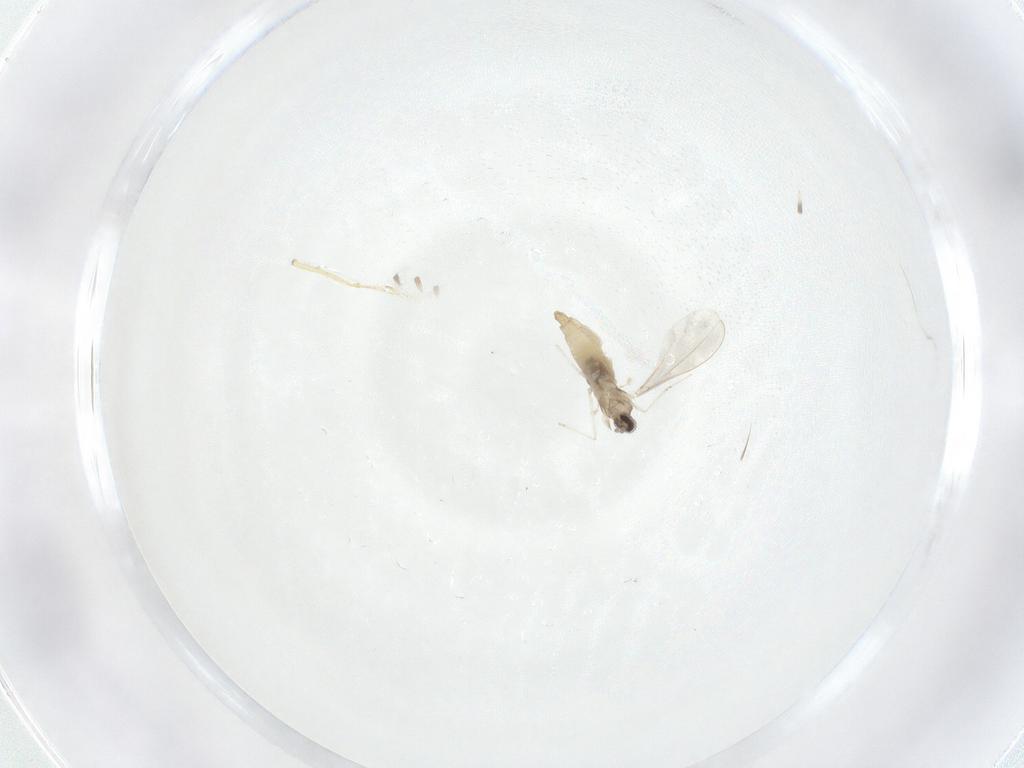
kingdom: Animalia
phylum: Arthropoda
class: Insecta
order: Diptera
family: Cecidomyiidae
